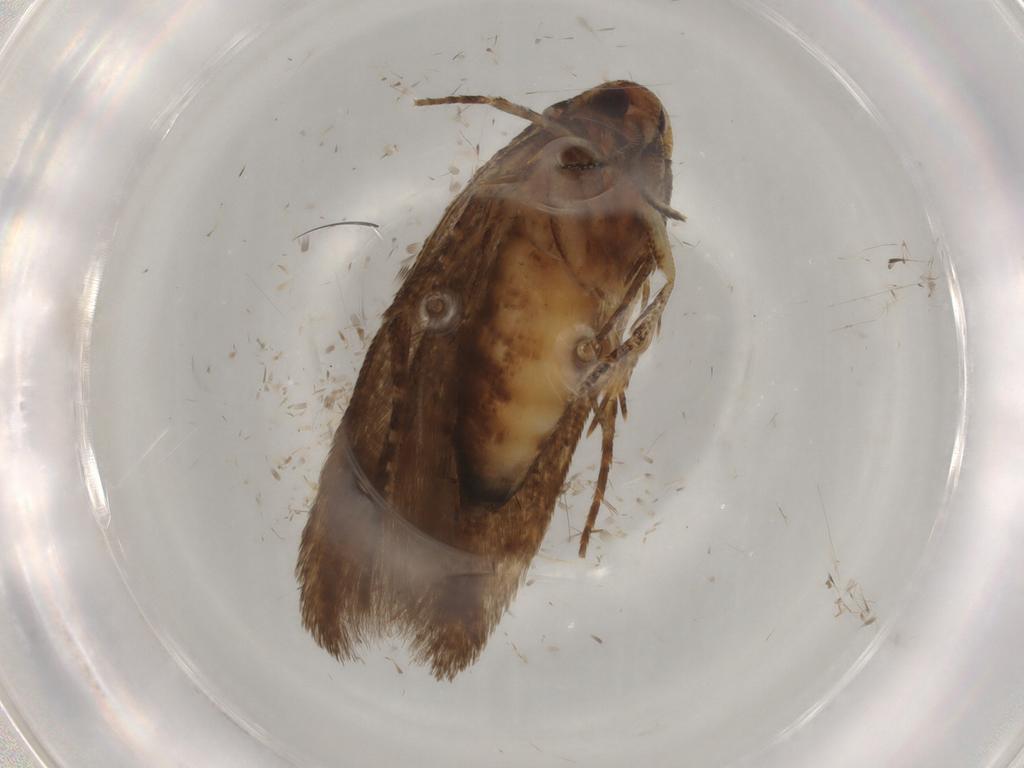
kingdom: Animalia
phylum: Arthropoda
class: Insecta
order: Lepidoptera
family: Cosmopterigidae
